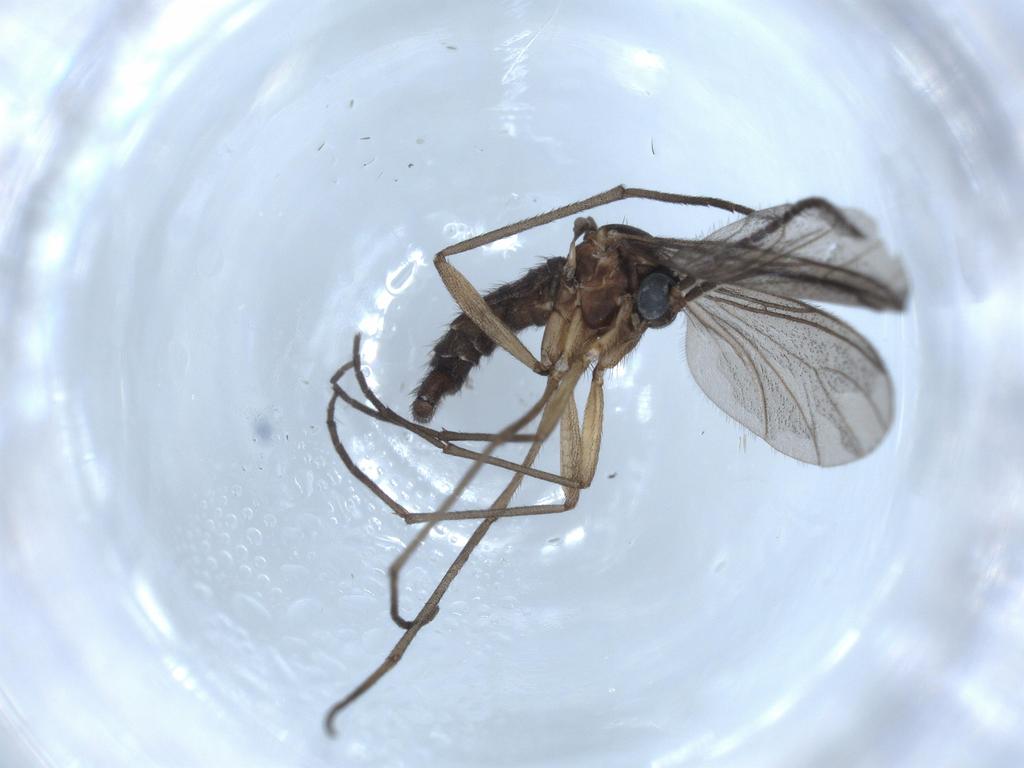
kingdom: Animalia
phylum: Arthropoda
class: Insecta
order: Diptera
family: Sciaridae
